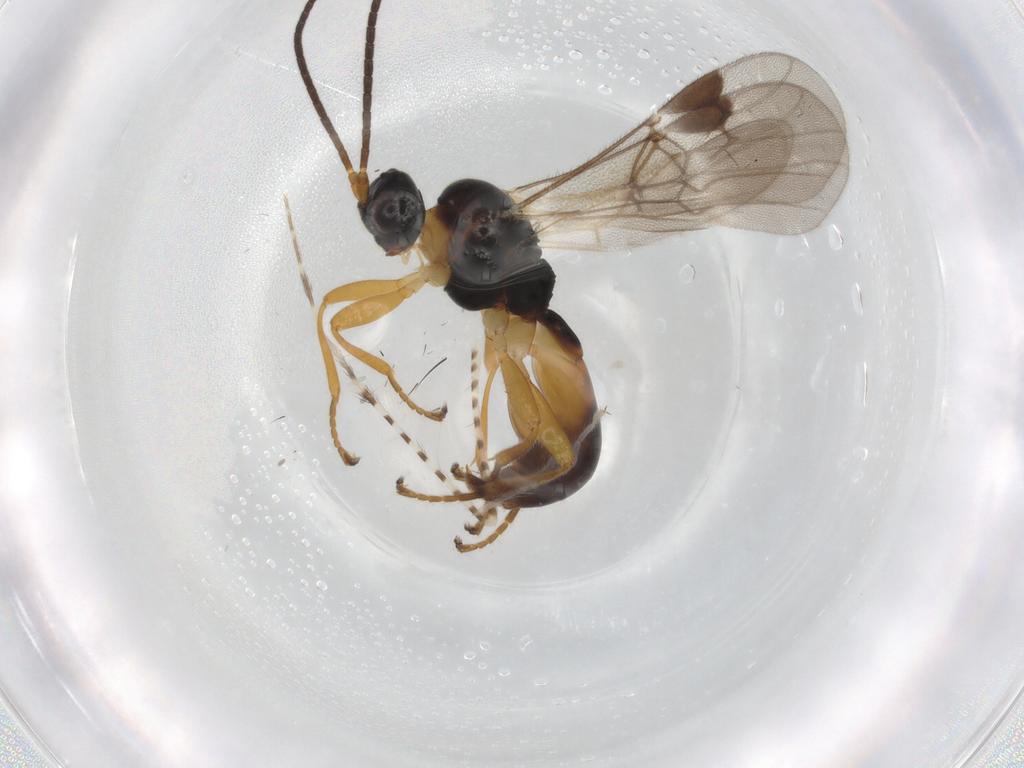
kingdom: Animalia
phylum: Arthropoda
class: Insecta
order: Hymenoptera
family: Braconidae
